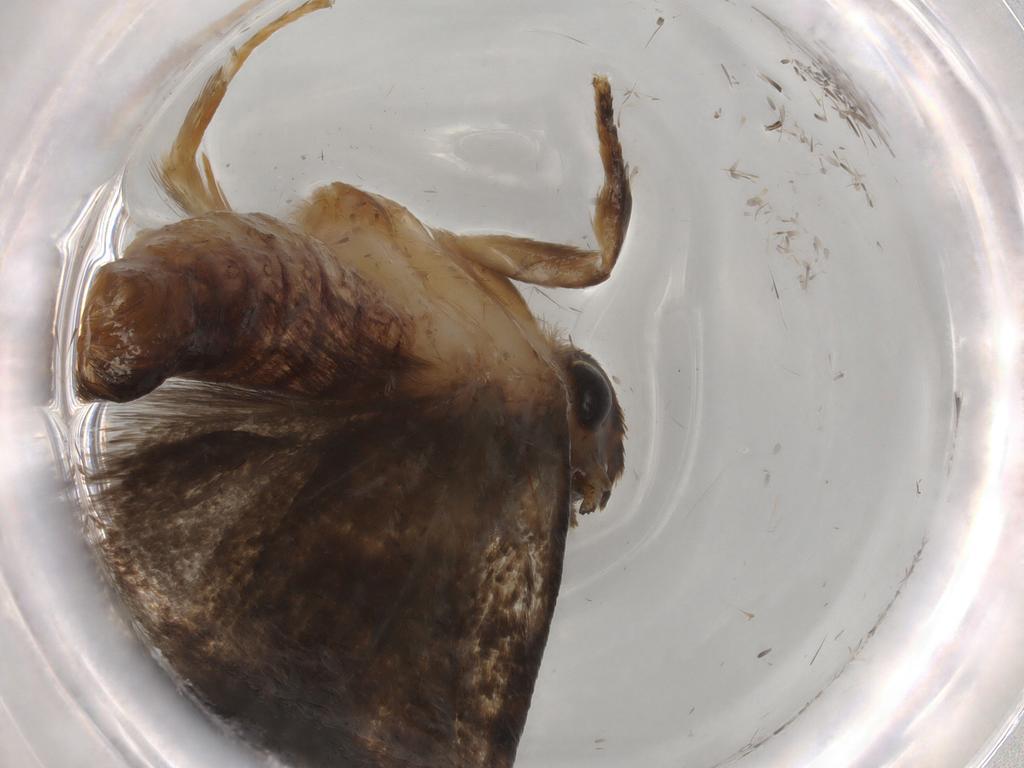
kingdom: Animalia
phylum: Arthropoda
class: Insecta
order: Lepidoptera
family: Tineidae
